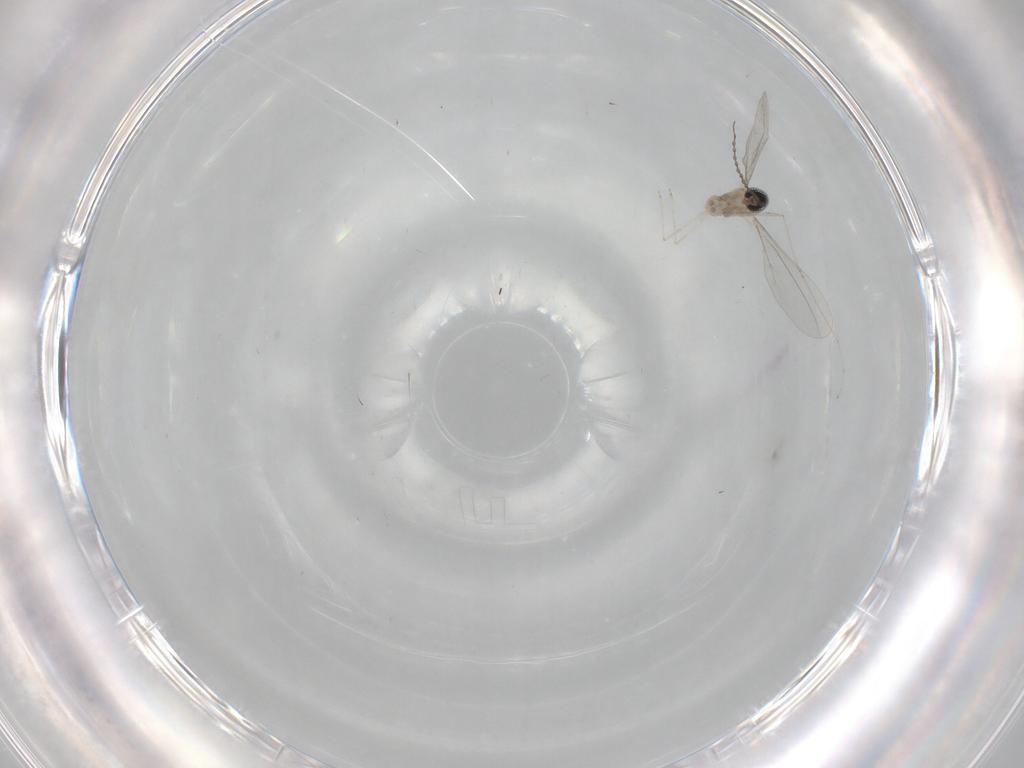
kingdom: Animalia
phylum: Arthropoda
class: Insecta
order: Diptera
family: Cecidomyiidae
